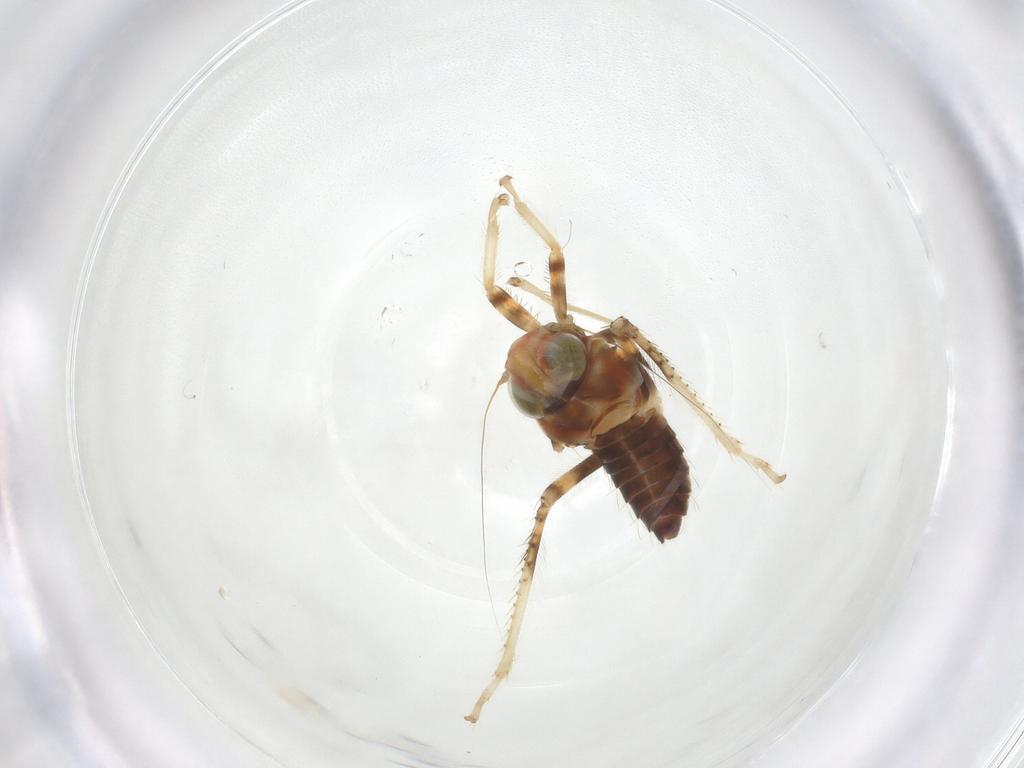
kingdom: Animalia
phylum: Arthropoda
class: Insecta
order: Hemiptera
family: Cicadellidae
